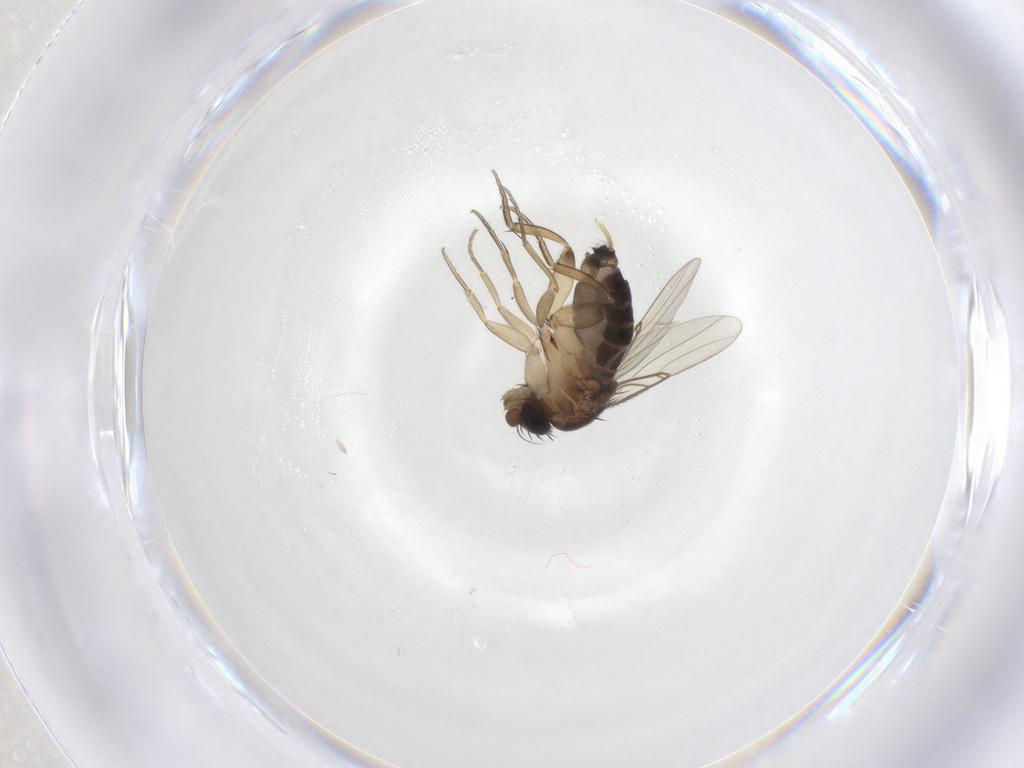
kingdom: Animalia
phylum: Arthropoda
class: Insecta
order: Diptera
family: Phoridae
